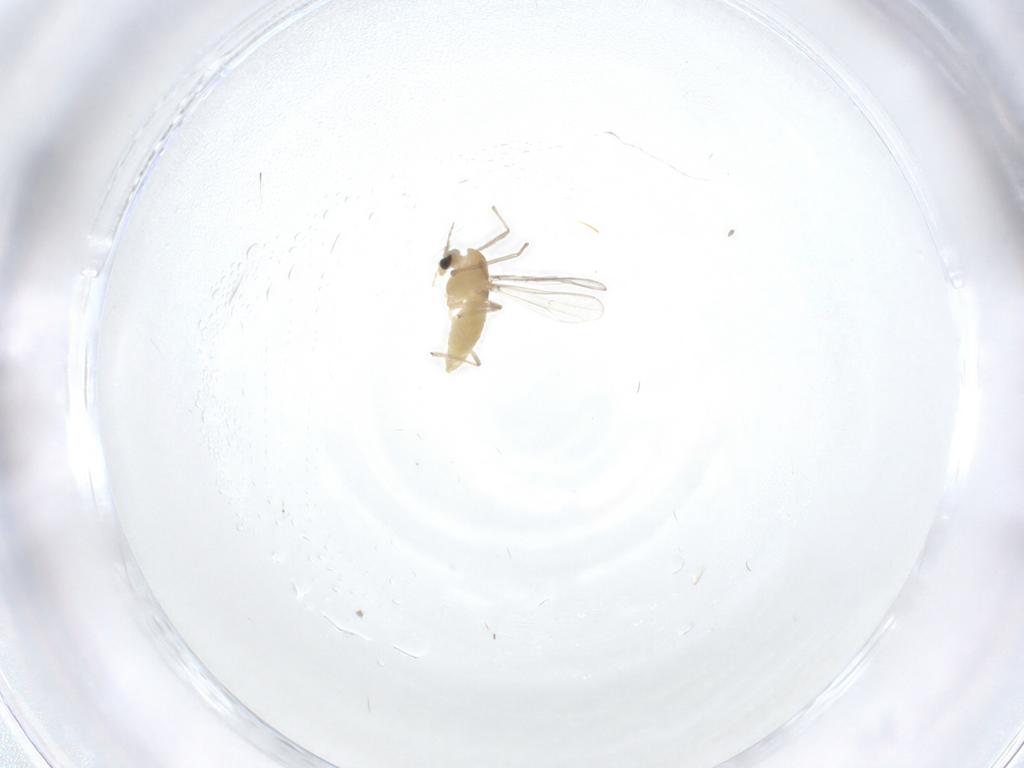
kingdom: Animalia
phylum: Arthropoda
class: Insecta
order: Diptera
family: Chironomidae
